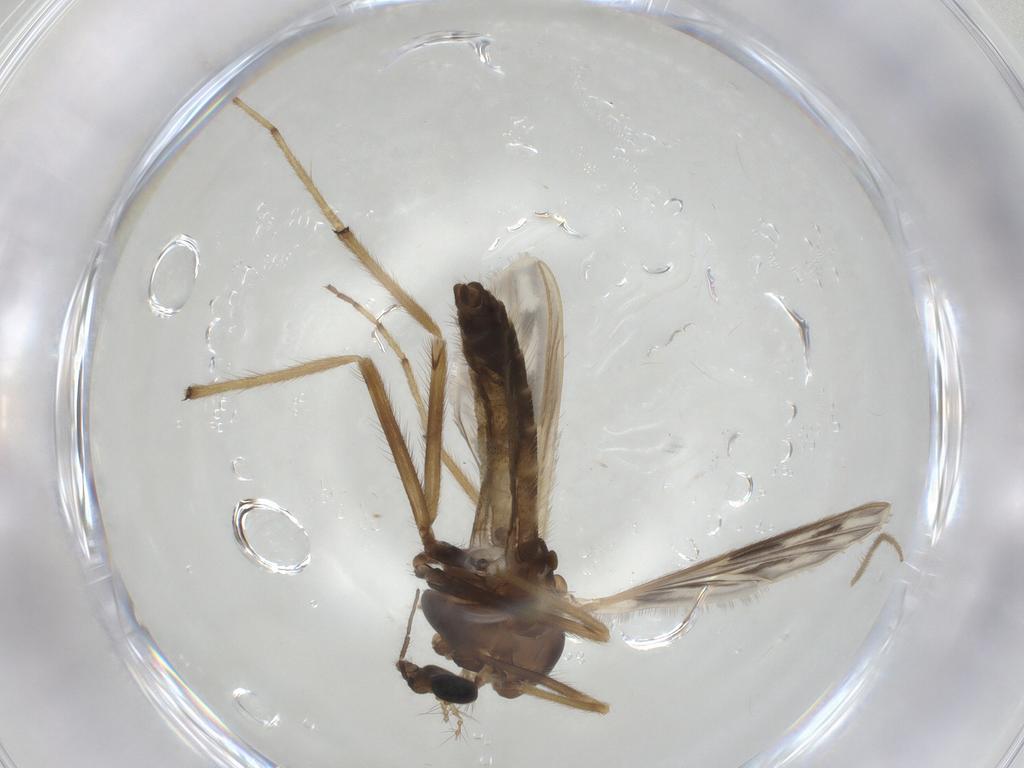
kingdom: Animalia
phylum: Arthropoda
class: Insecta
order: Diptera
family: Chironomidae
